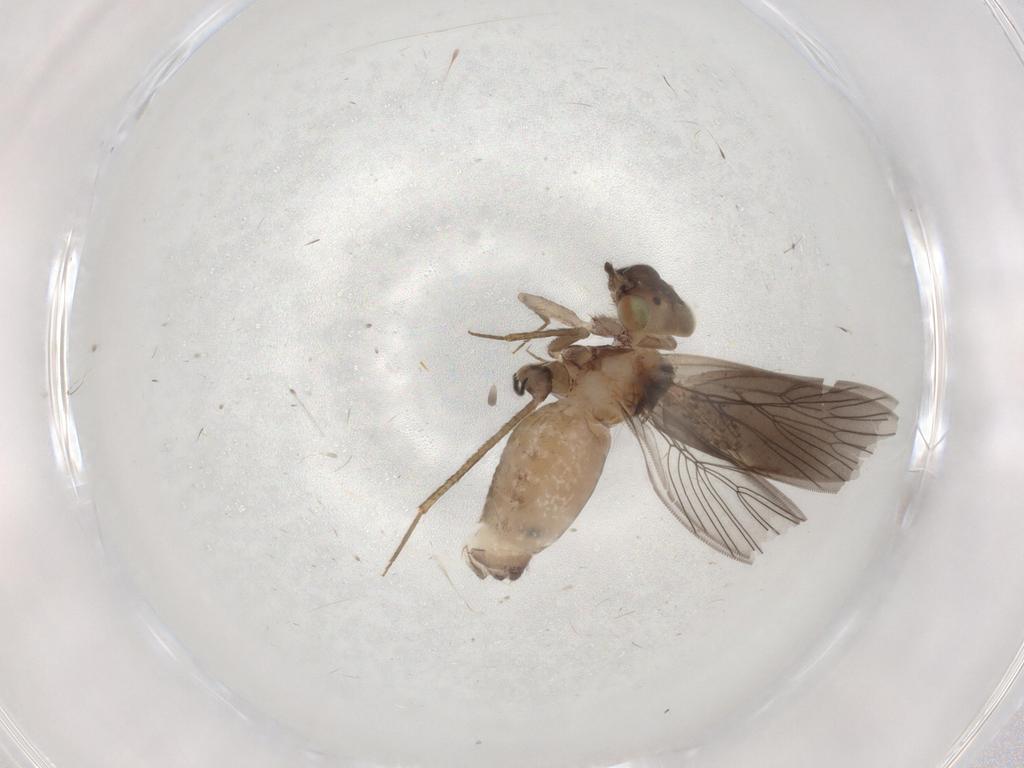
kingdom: Animalia
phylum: Arthropoda
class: Insecta
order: Psocodea
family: Lepidopsocidae
